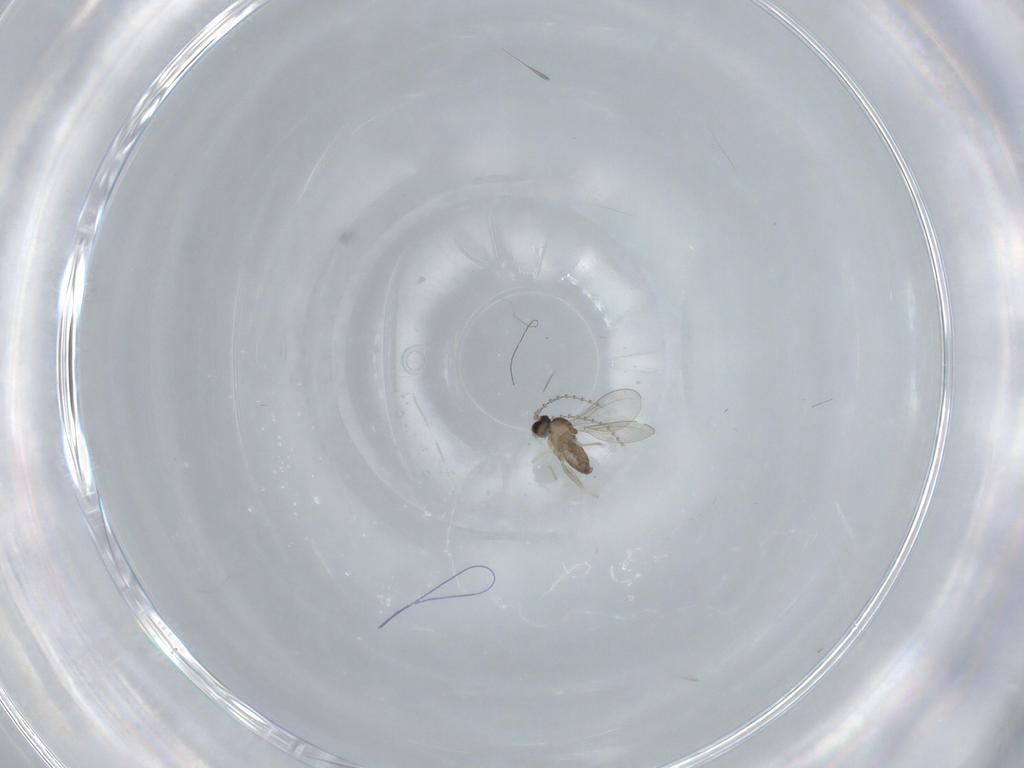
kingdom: Animalia
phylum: Arthropoda
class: Insecta
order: Diptera
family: Cecidomyiidae
